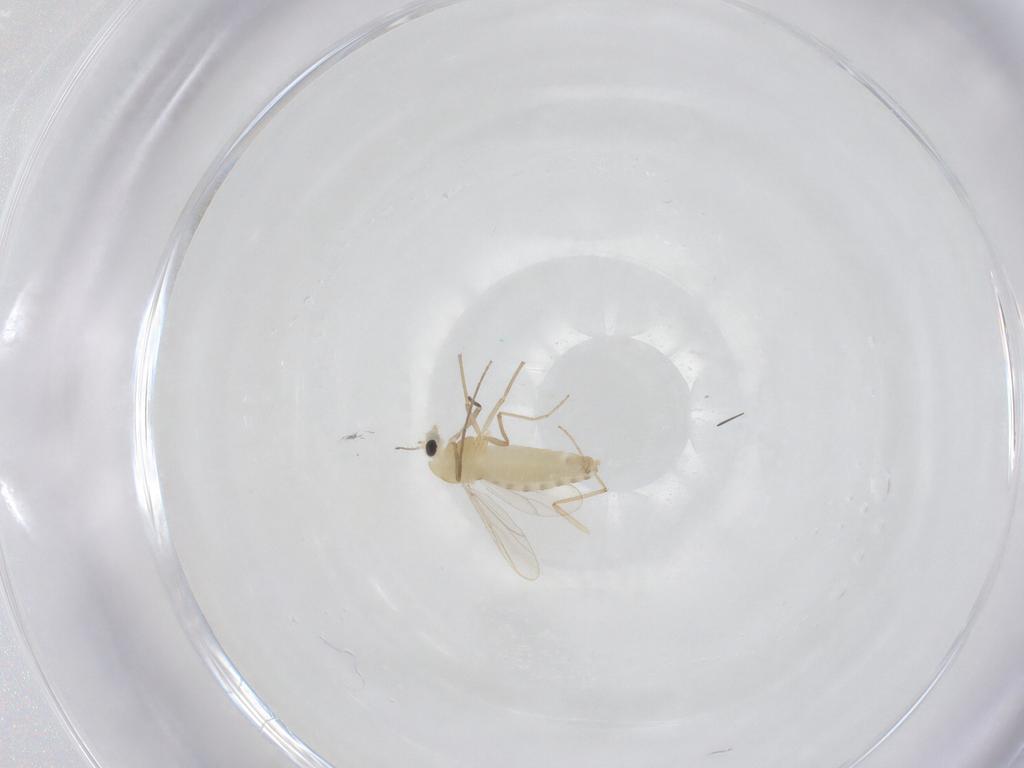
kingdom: Animalia
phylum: Arthropoda
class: Insecta
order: Diptera
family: Chironomidae
